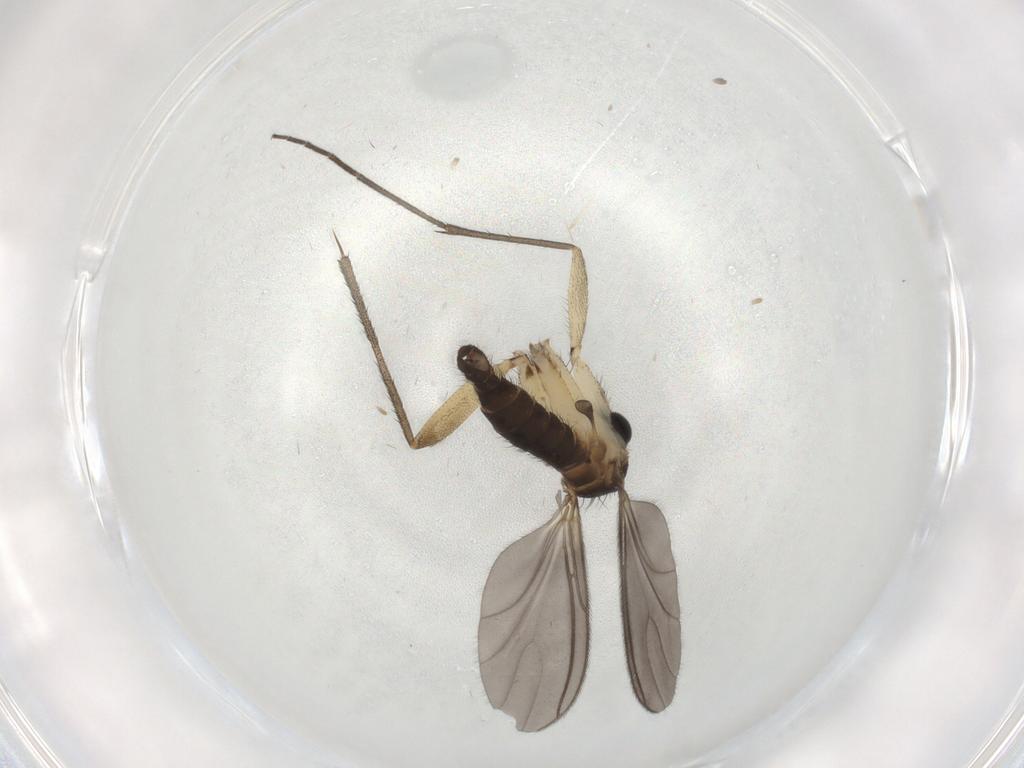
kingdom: Animalia
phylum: Arthropoda
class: Insecta
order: Diptera
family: Sciaridae
